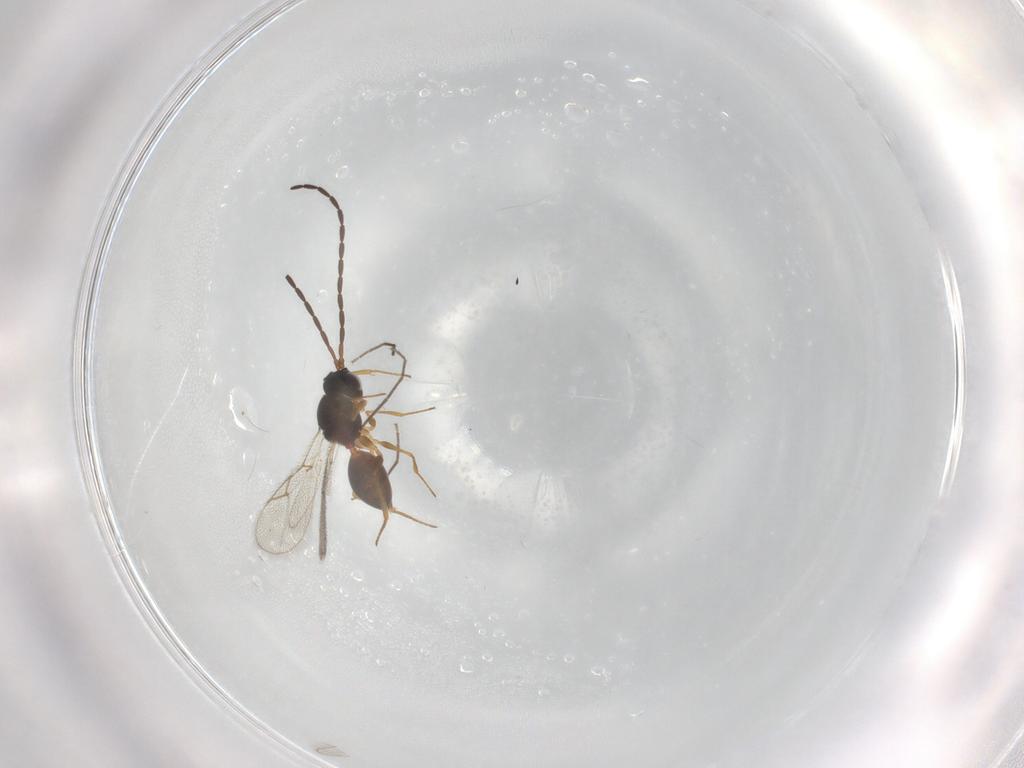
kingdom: Animalia
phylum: Arthropoda
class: Insecta
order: Hymenoptera
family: Figitidae
